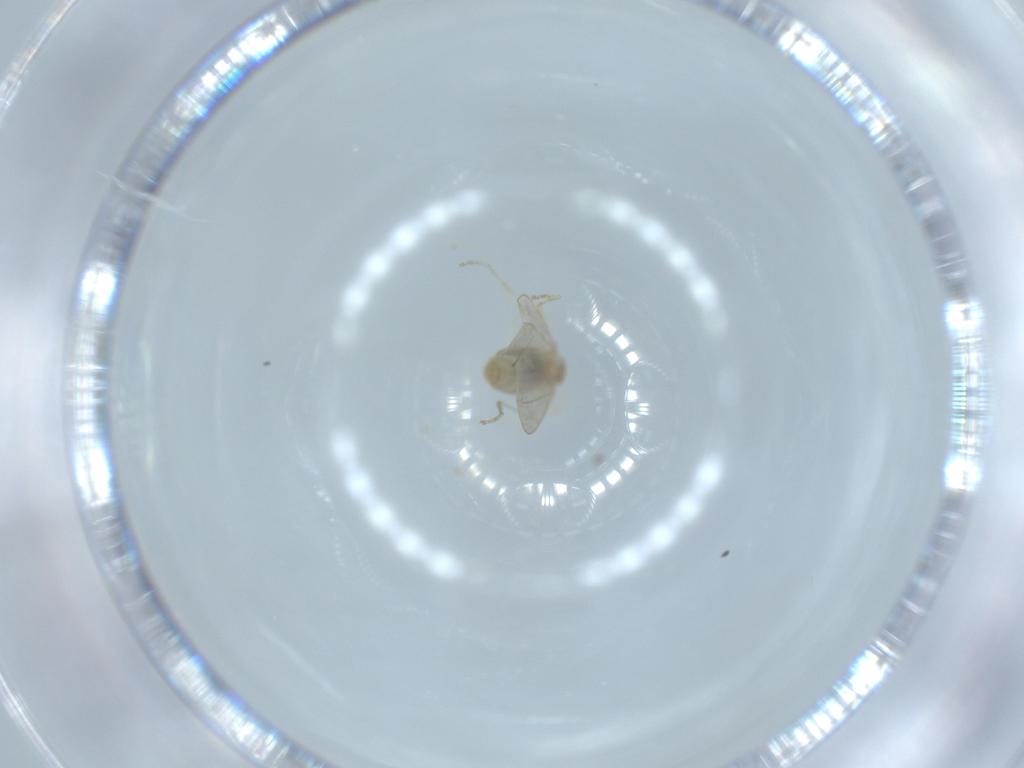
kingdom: Animalia
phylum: Arthropoda
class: Insecta
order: Diptera
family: Cecidomyiidae
